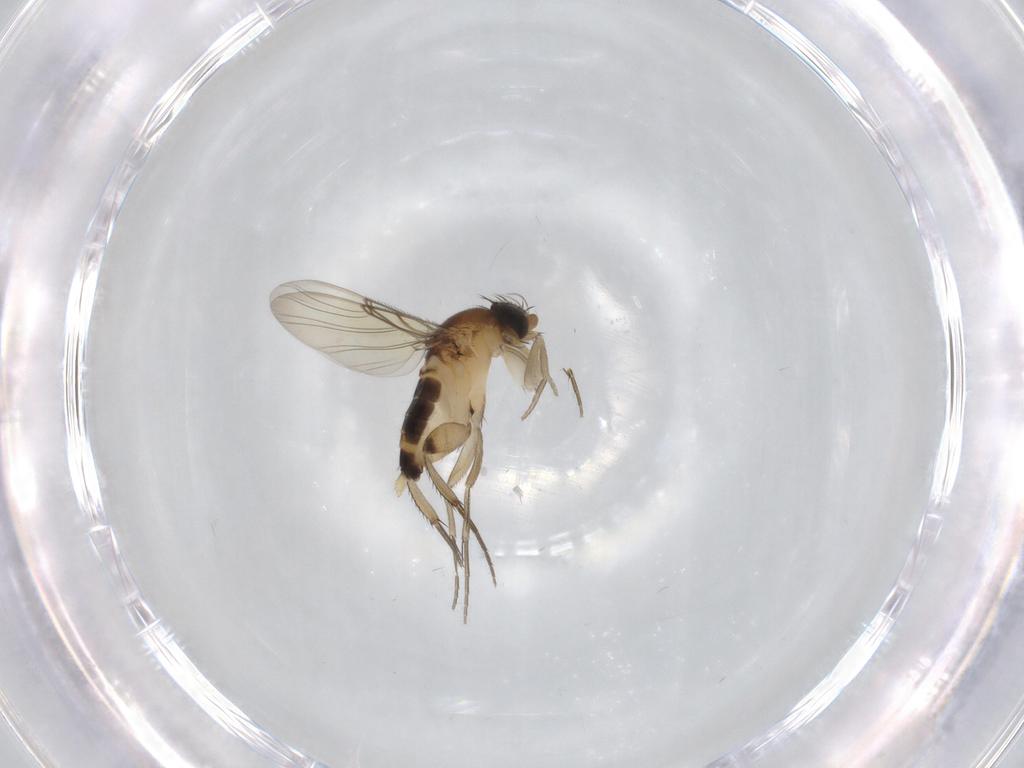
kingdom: Animalia
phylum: Arthropoda
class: Insecta
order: Diptera
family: Phoridae
